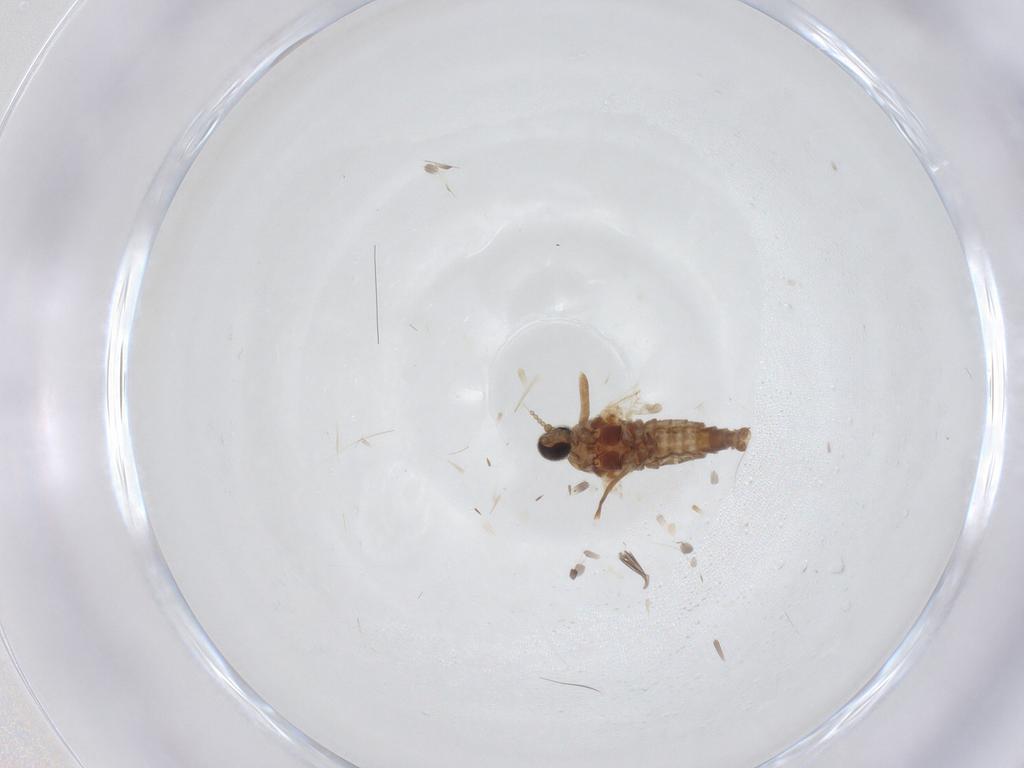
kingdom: Animalia
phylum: Arthropoda
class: Insecta
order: Diptera
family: Cecidomyiidae
